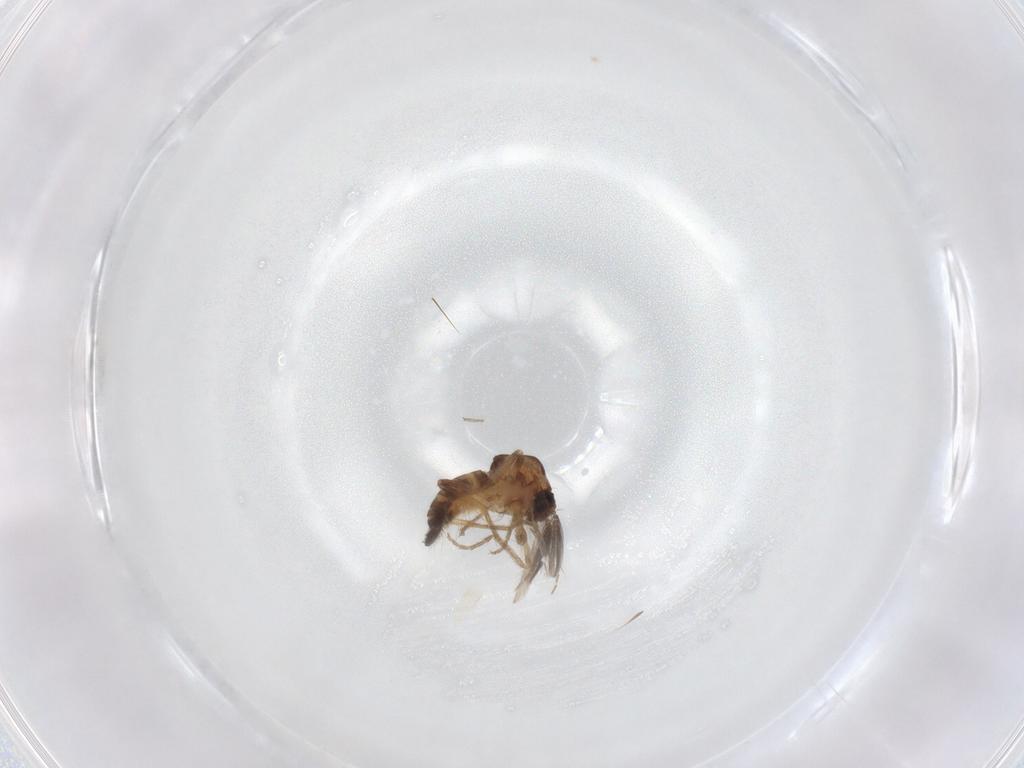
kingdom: Animalia
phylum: Arthropoda
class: Insecta
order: Diptera
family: Ceratopogonidae
